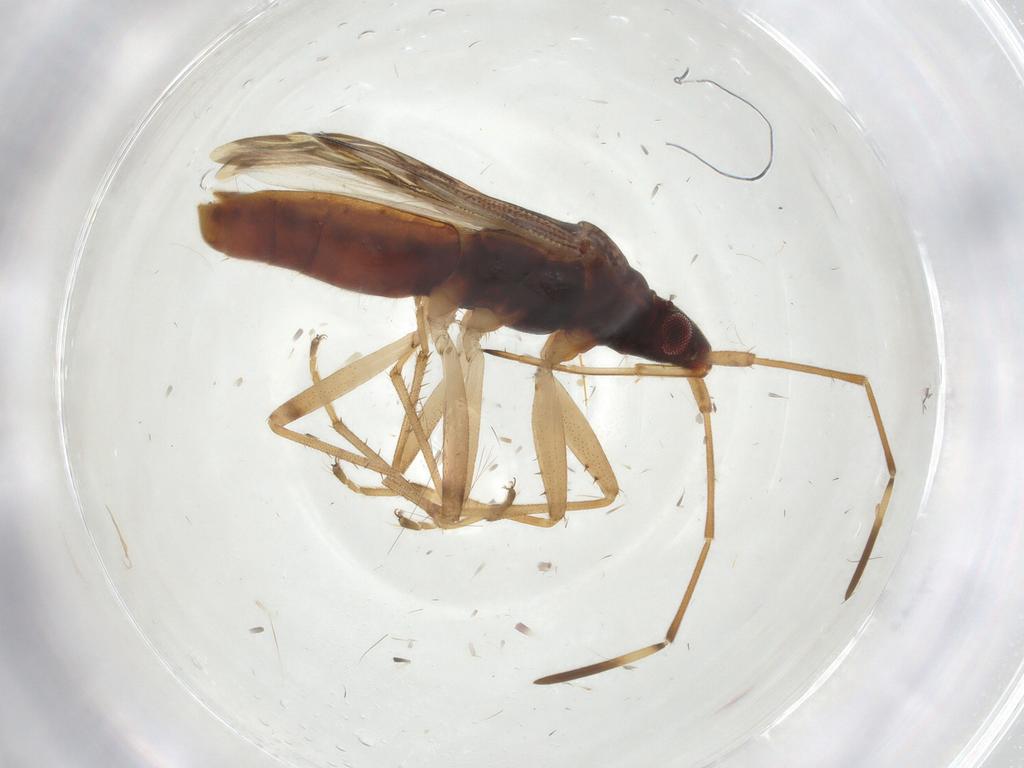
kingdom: Animalia
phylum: Arthropoda
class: Insecta
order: Hemiptera
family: Rhyparochromidae
